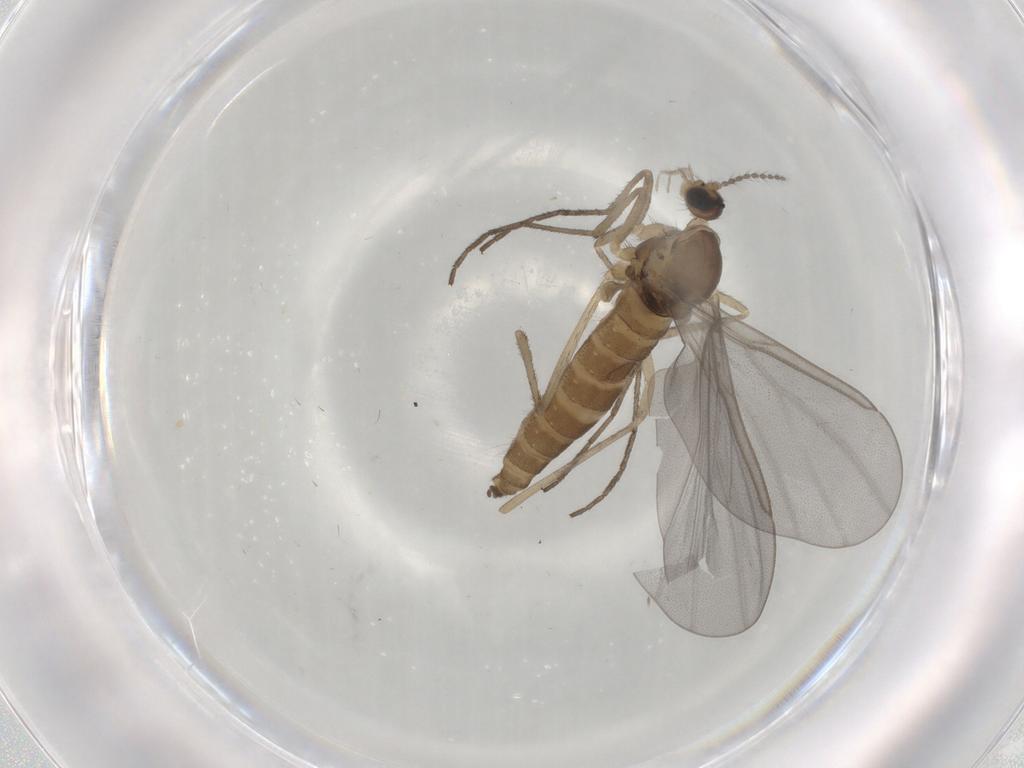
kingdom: Animalia
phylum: Arthropoda
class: Insecta
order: Diptera
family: Cecidomyiidae
